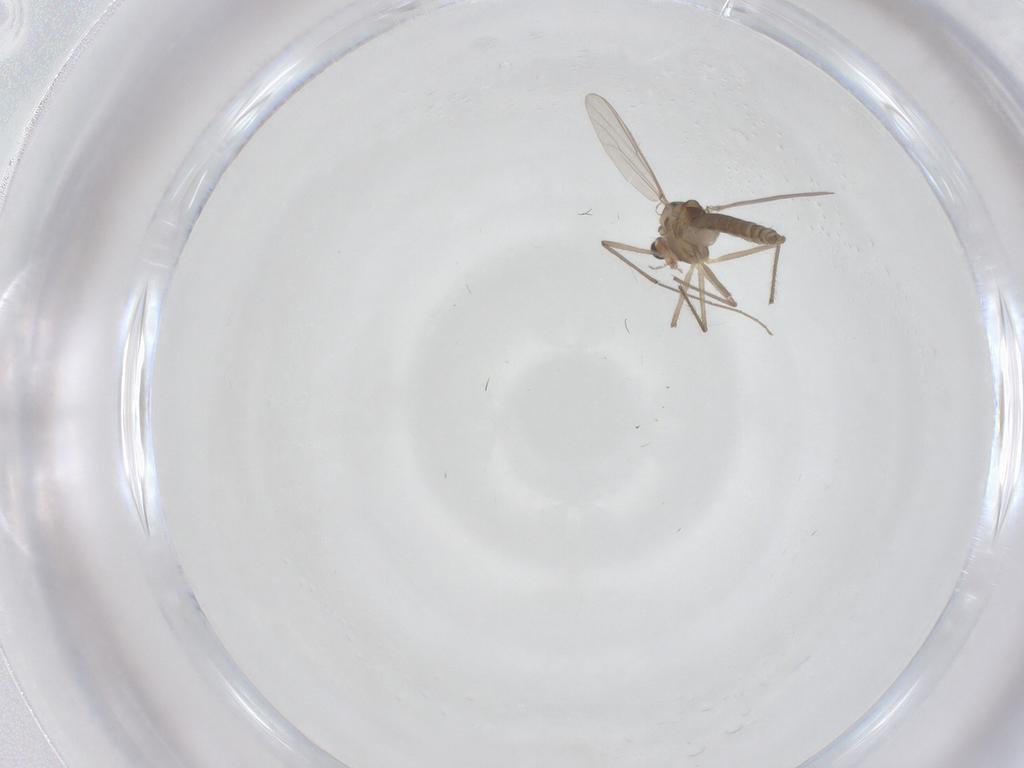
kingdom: Animalia
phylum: Arthropoda
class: Insecta
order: Diptera
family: Chironomidae
